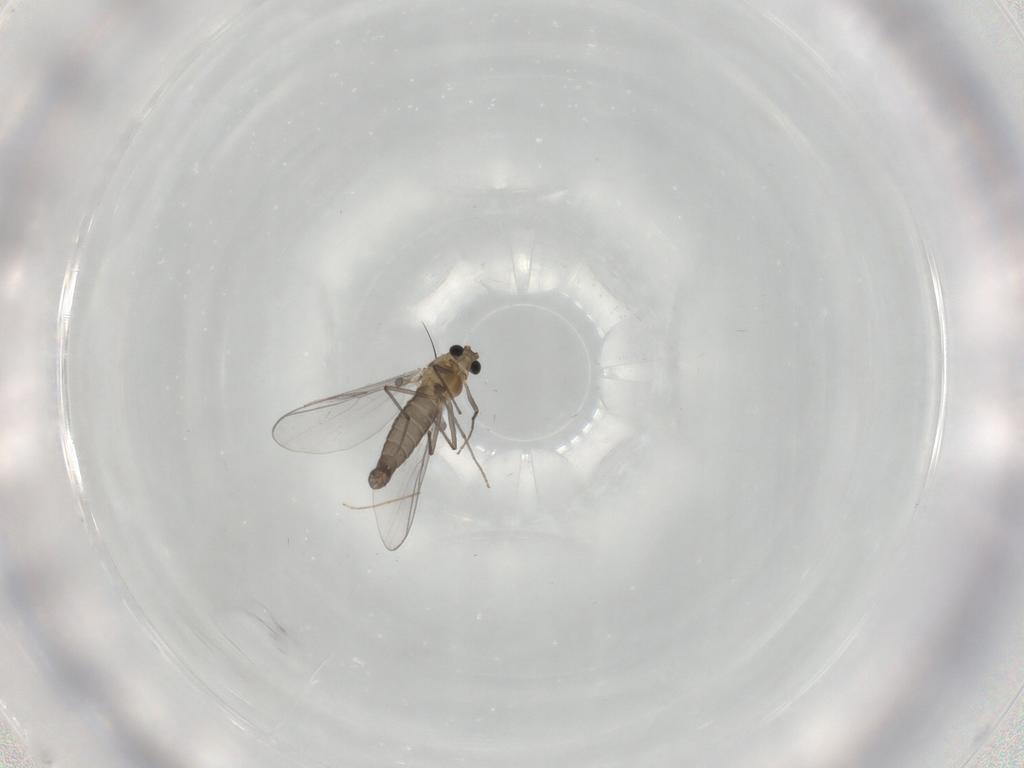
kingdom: Animalia
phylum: Arthropoda
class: Insecta
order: Diptera
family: Chironomidae
